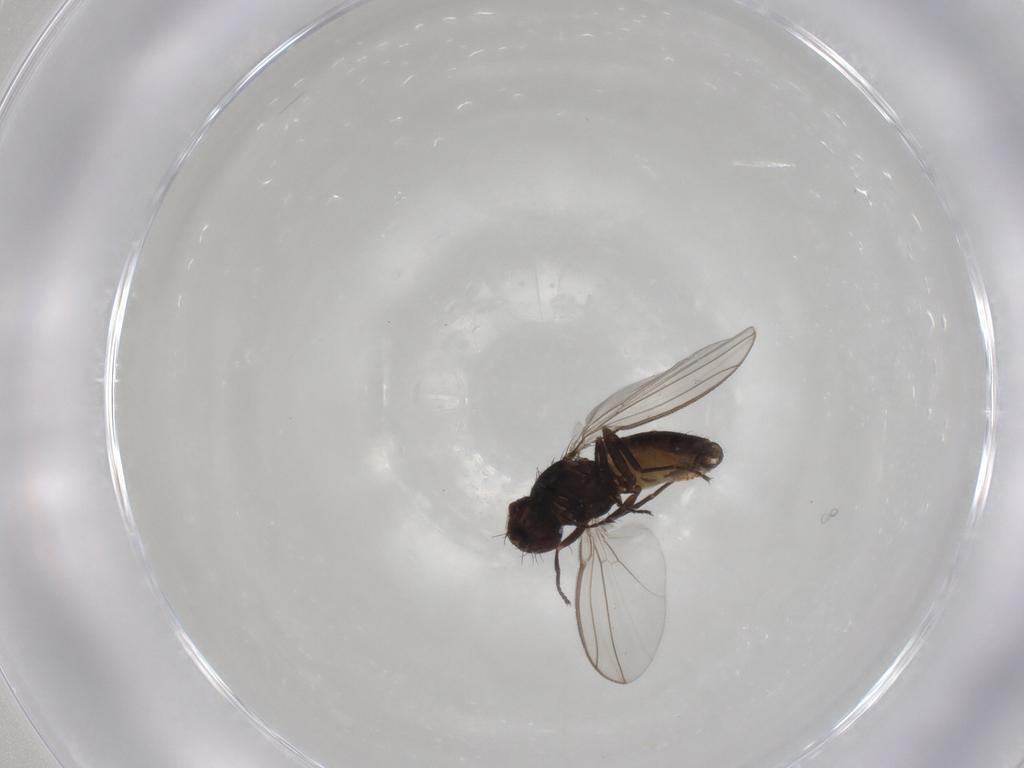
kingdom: Animalia
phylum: Arthropoda
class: Insecta
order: Diptera
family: Carnidae
